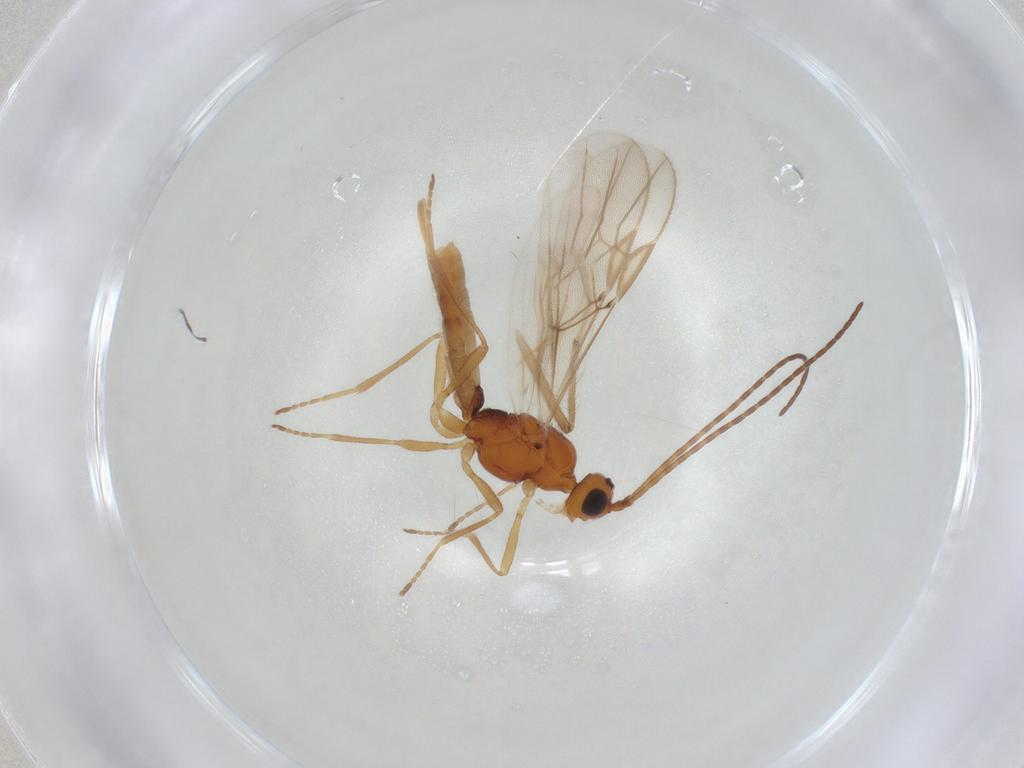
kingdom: Animalia
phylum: Arthropoda
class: Insecta
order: Hymenoptera
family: Braconidae
